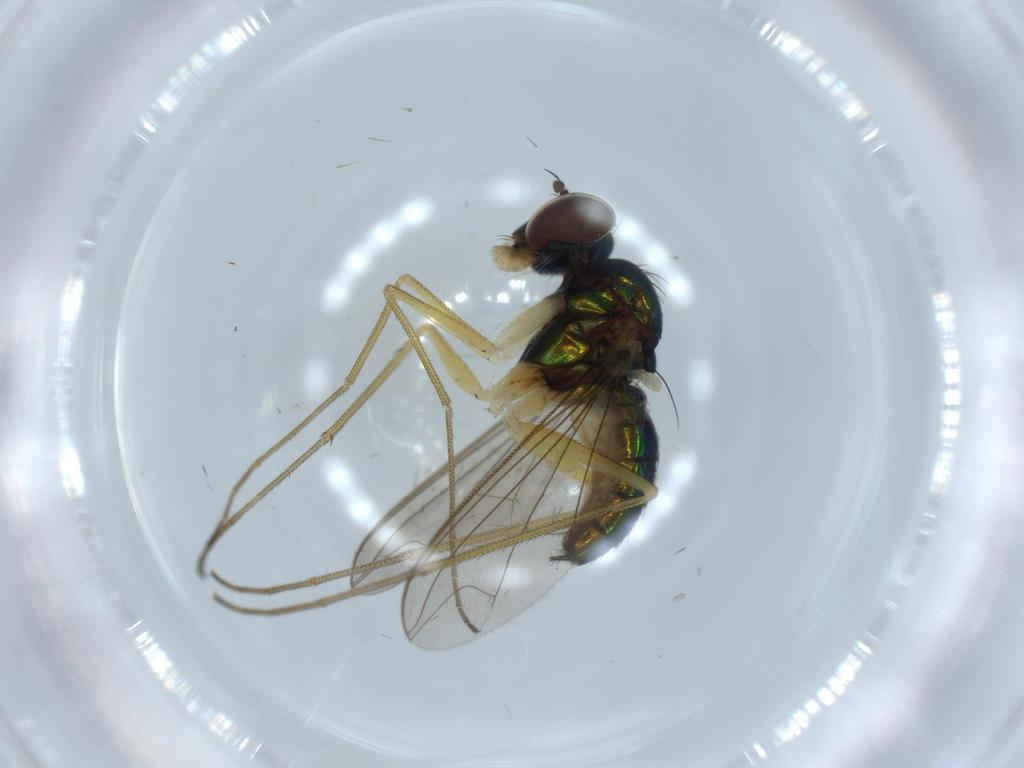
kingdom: Animalia
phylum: Arthropoda
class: Insecta
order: Diptera
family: Dolichopodidae
